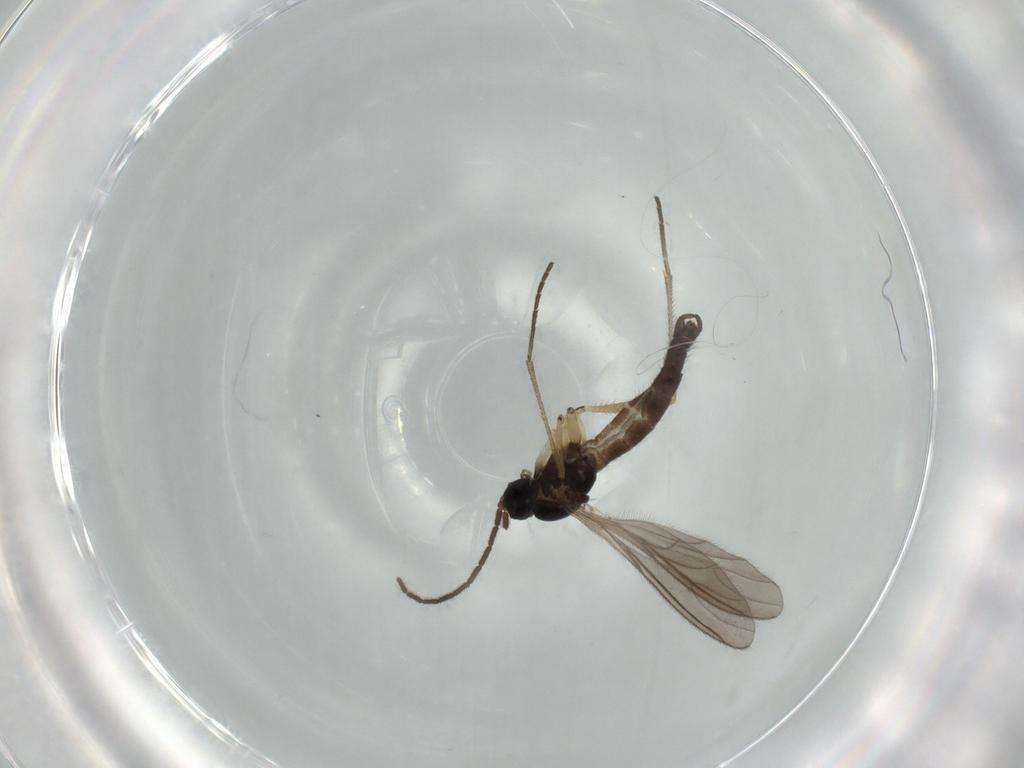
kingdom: Animalia
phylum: Arthropoda
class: Insecta
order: Diptera
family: Sciaridae
